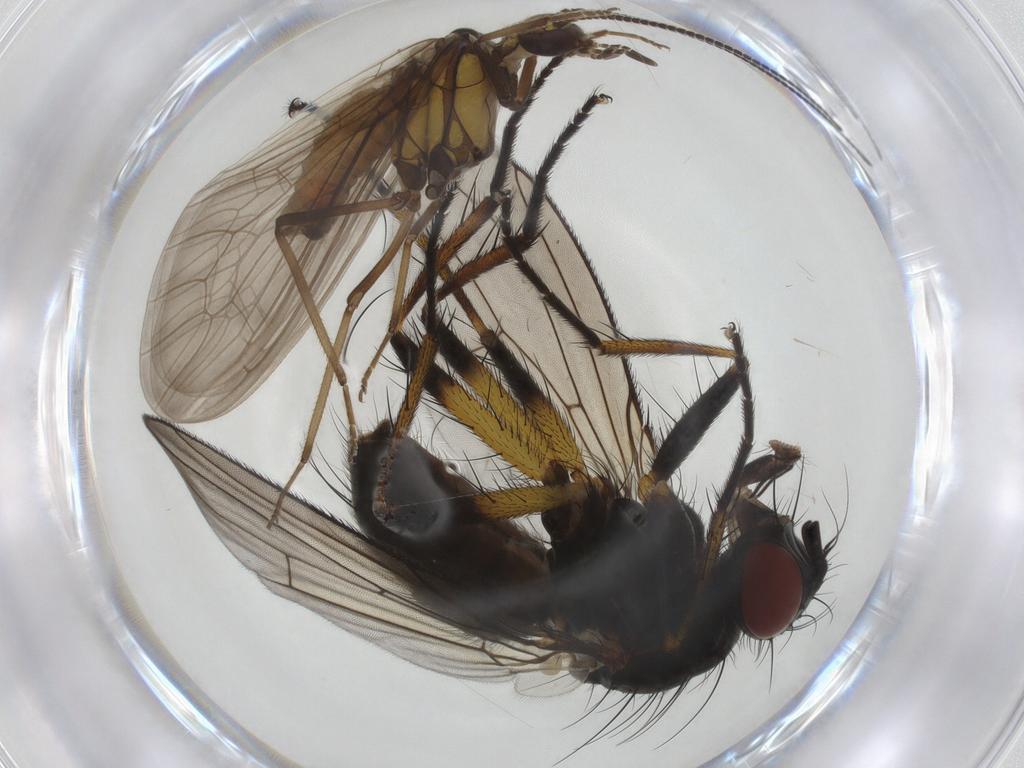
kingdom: Animalia
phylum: Arthropoda
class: Insecta
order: Diptera
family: Muscidae
